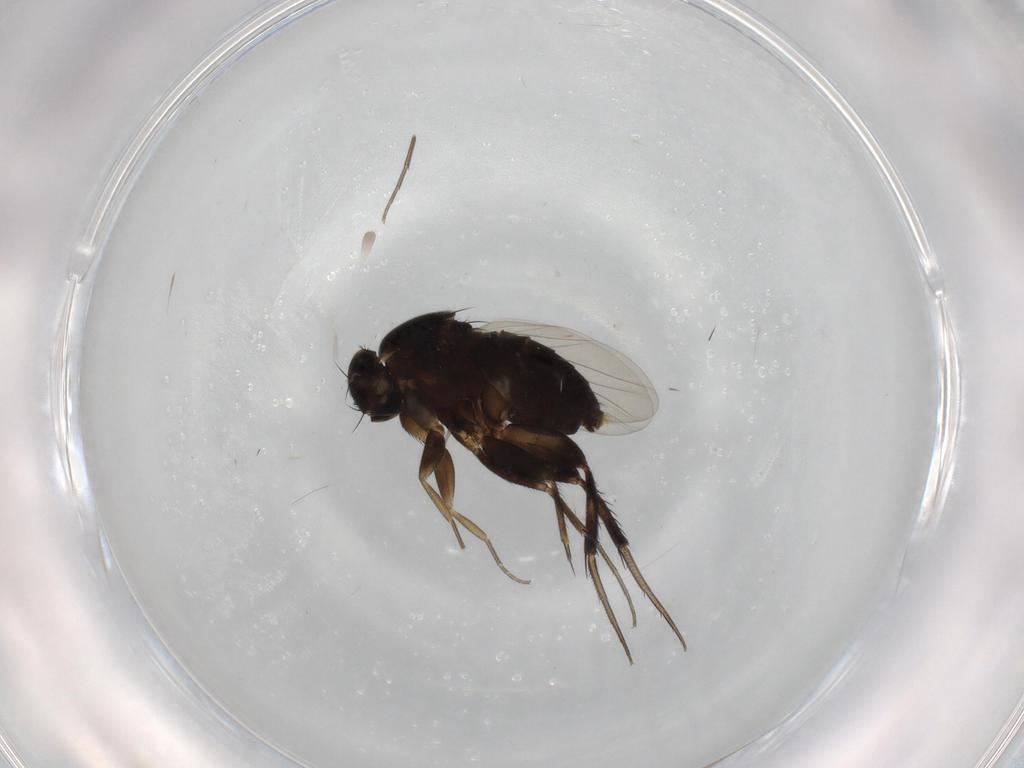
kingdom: Animalia
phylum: Arthropoda
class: Insecta
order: Diptera
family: Phoridae
